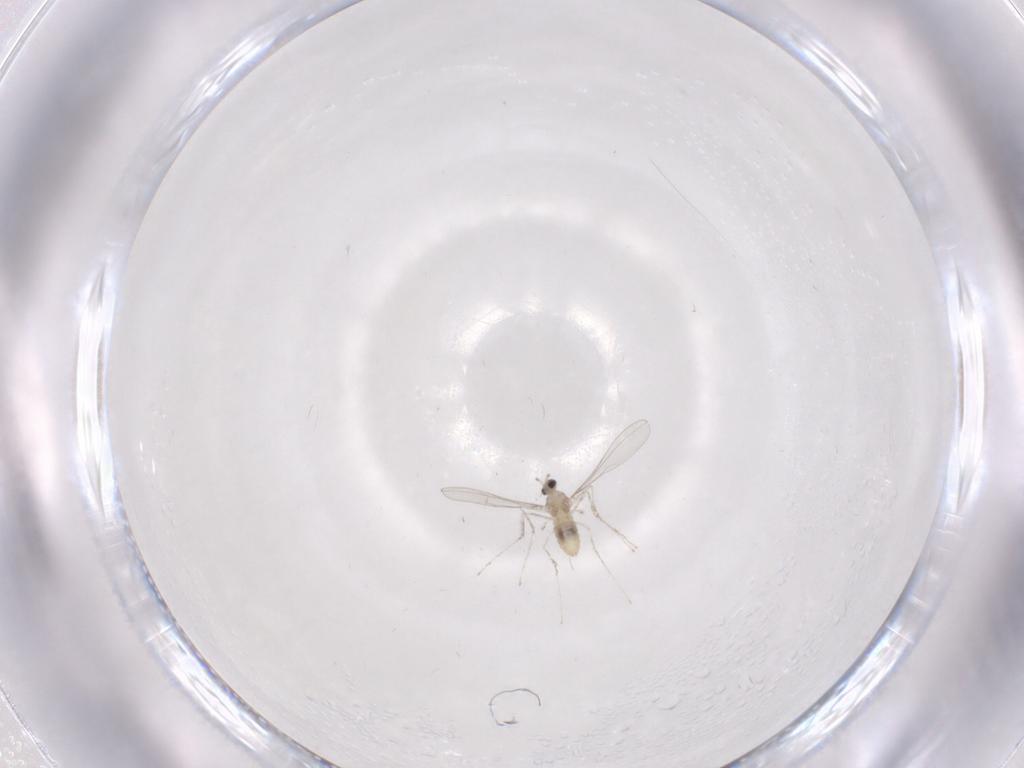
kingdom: Animalia
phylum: Arthropoda
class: Insecta
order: Diptera
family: Cecidomyiidae
